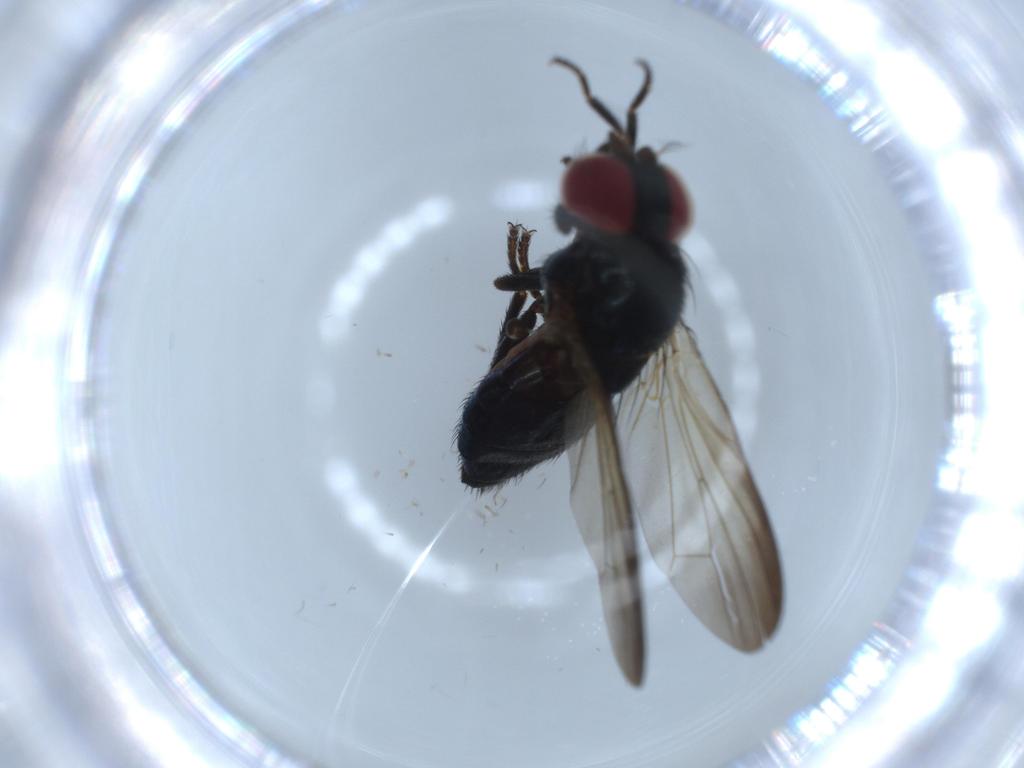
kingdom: Animalia
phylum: Arthropoda
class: Insecta
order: Diptera
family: Lonchaeidae
